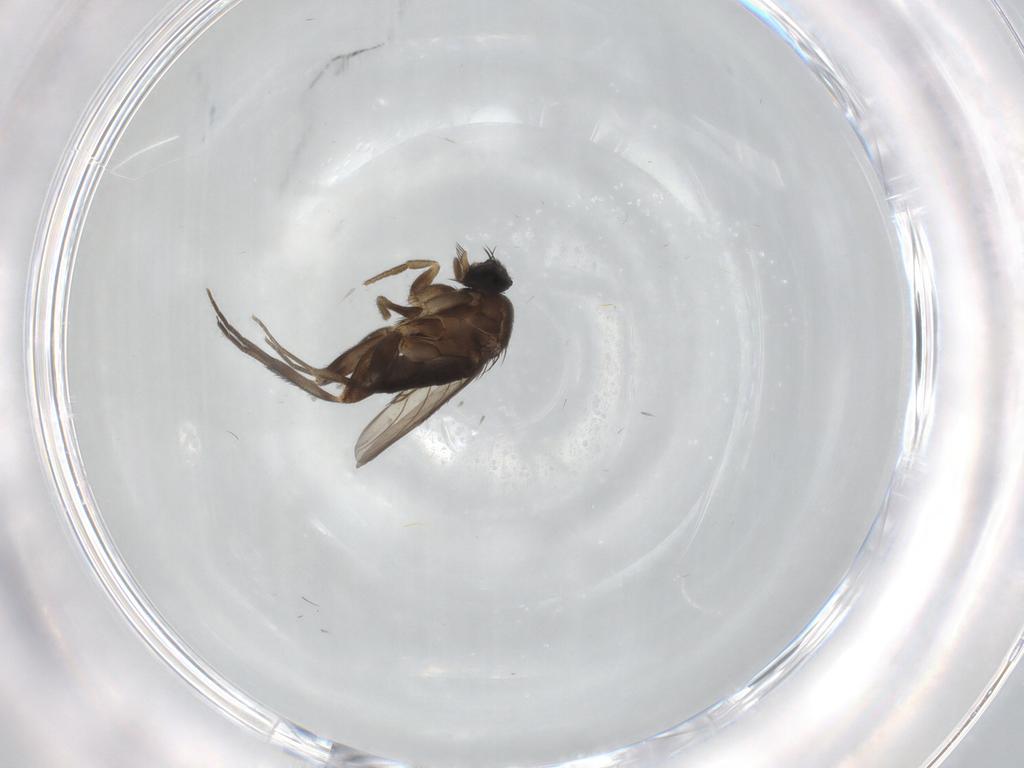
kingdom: Animalia
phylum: Arthropoda
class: Insecta
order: Diptera
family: Phoridae
